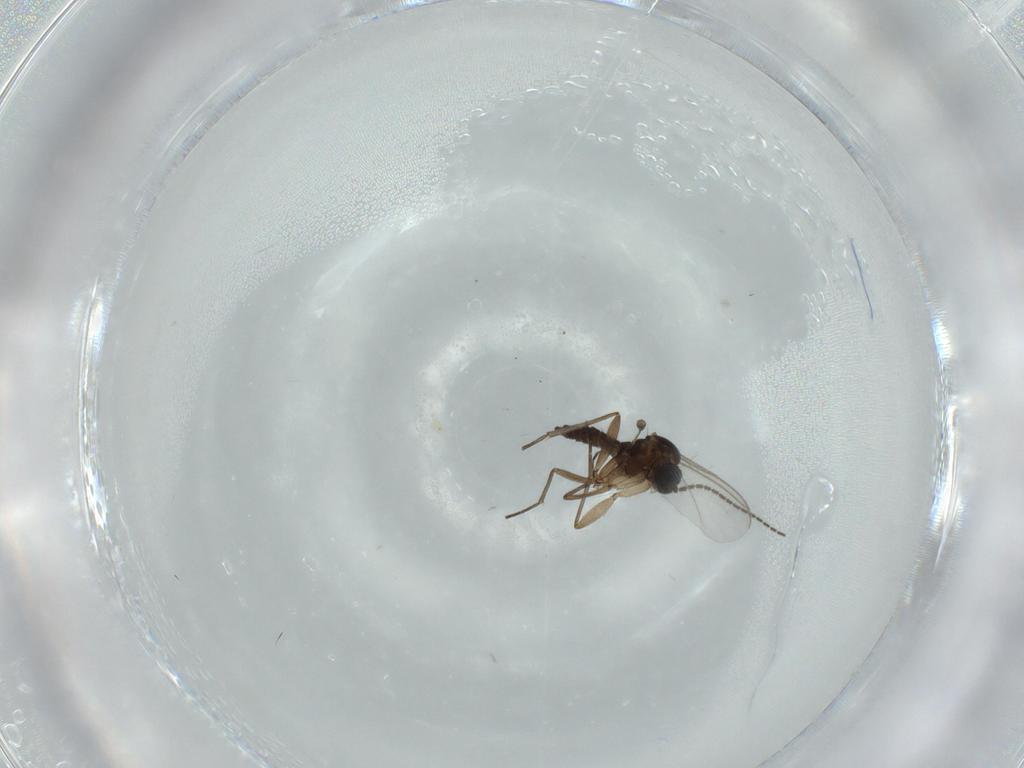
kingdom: Animalia
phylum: Arthropoda
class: Insecta
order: Diptera
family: Sciaridae
